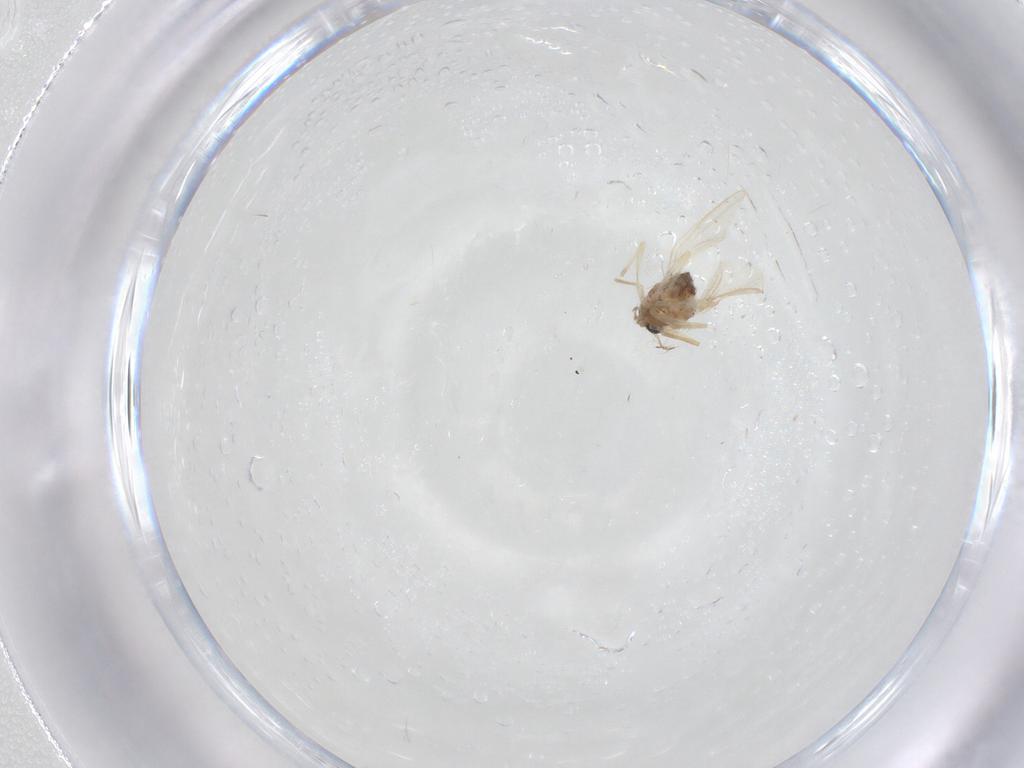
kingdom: Animalia
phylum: Arthropoda
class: Insecta
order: Diptera
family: Chironomidae
